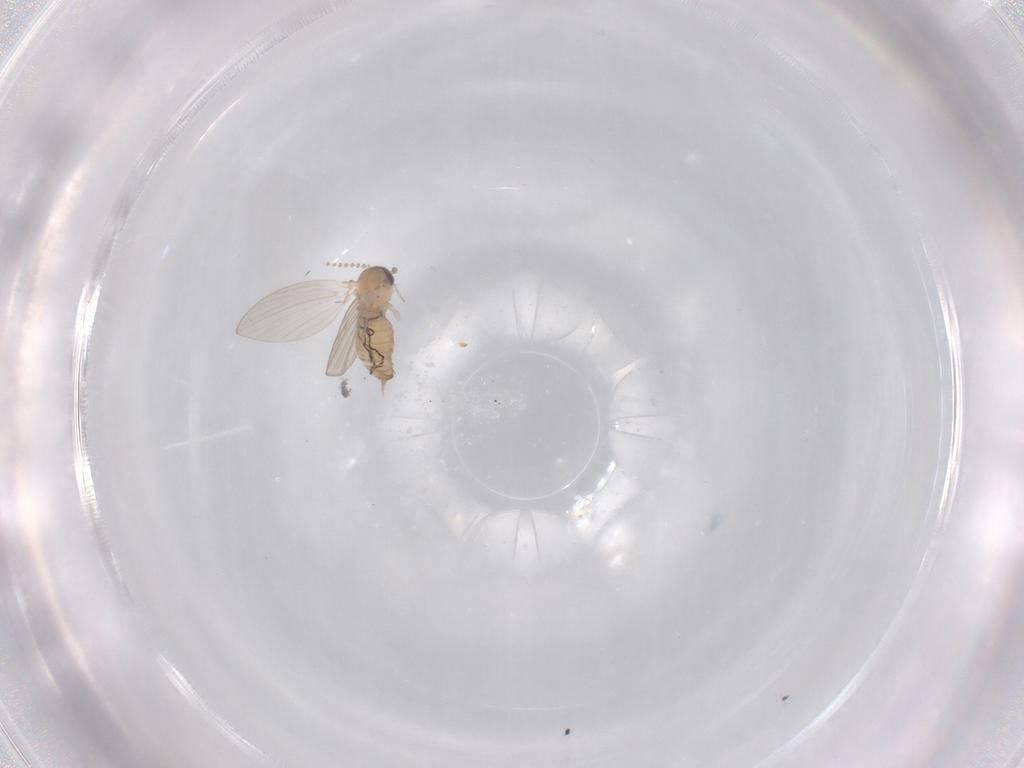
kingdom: Animalia
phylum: Arthropoda
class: Insecta
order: Diptera
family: Psychodidae
